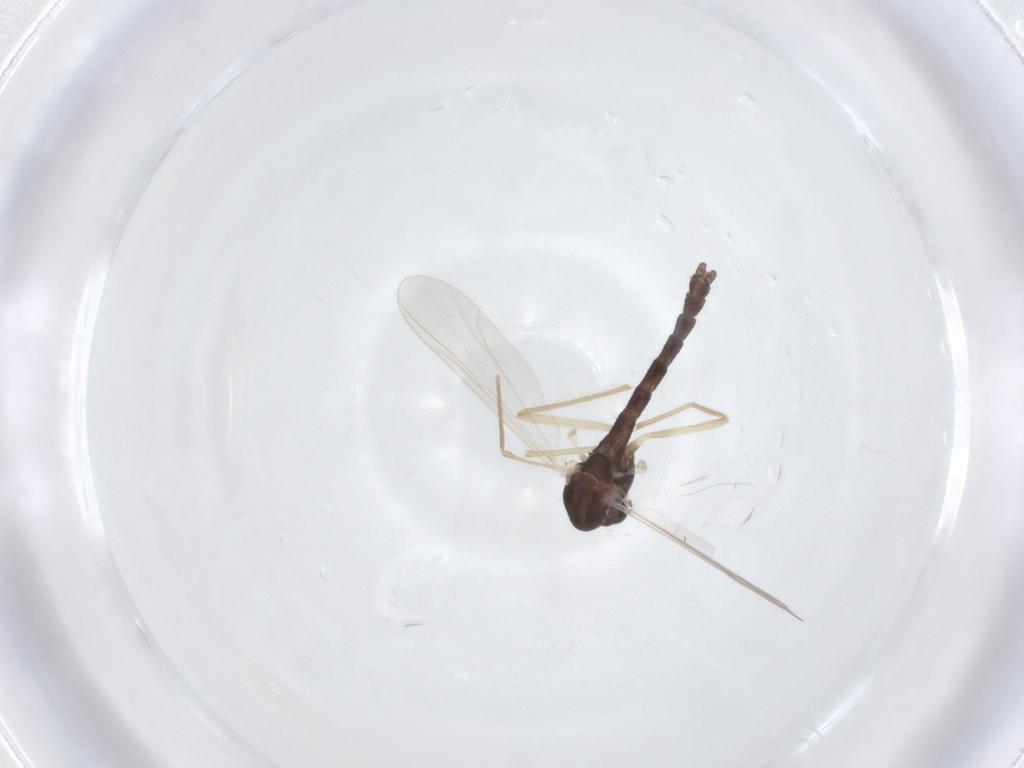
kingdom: Animalia
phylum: Arthropoda
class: Insecta
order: Diptera
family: Chironomidae
